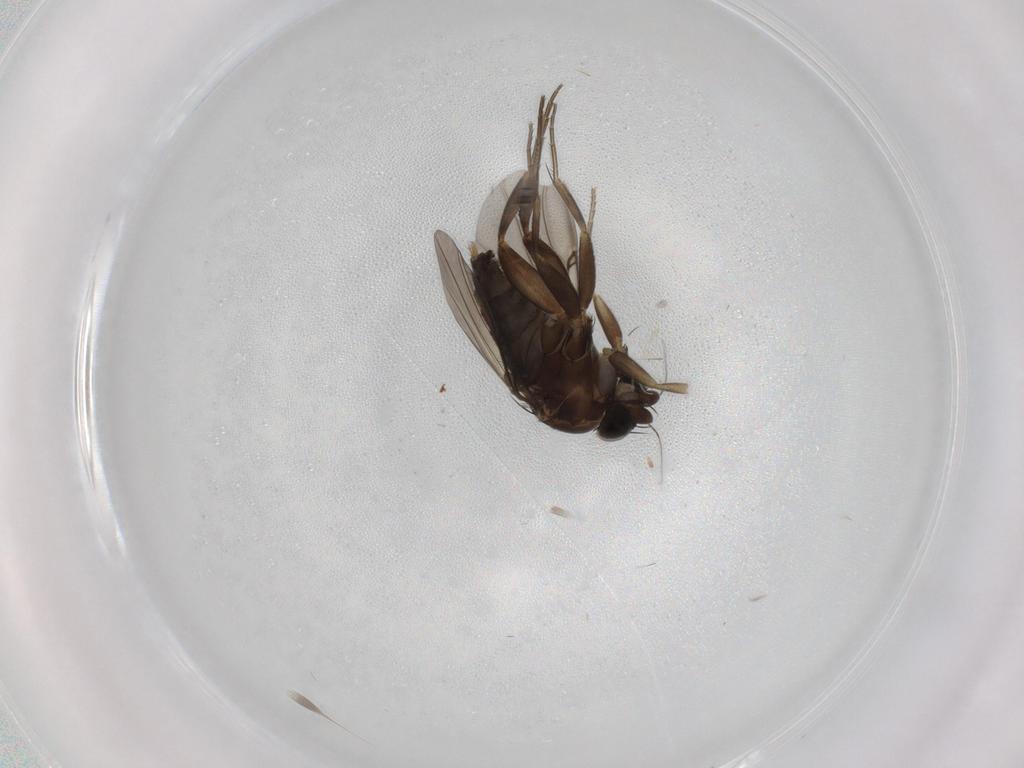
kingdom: Animalia
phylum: Arthropoda
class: Insecta
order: Diptera
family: Phoridae
